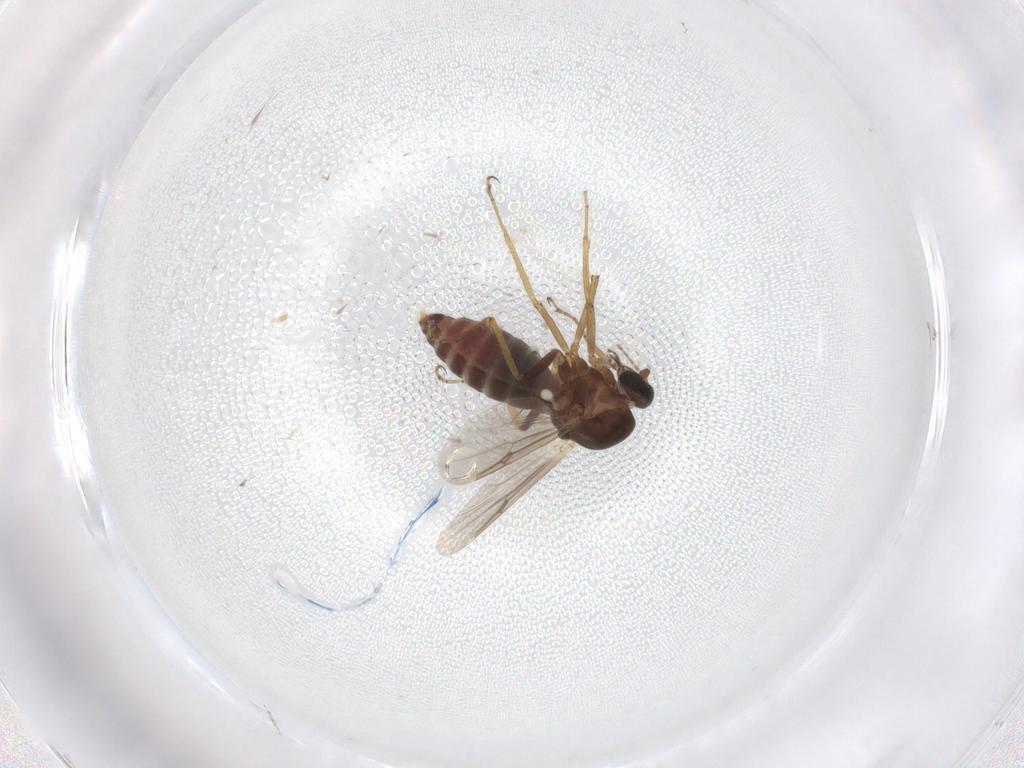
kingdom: Animalia
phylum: Arthropoda
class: Insecta
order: Diptera
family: Ceratopogonidae
